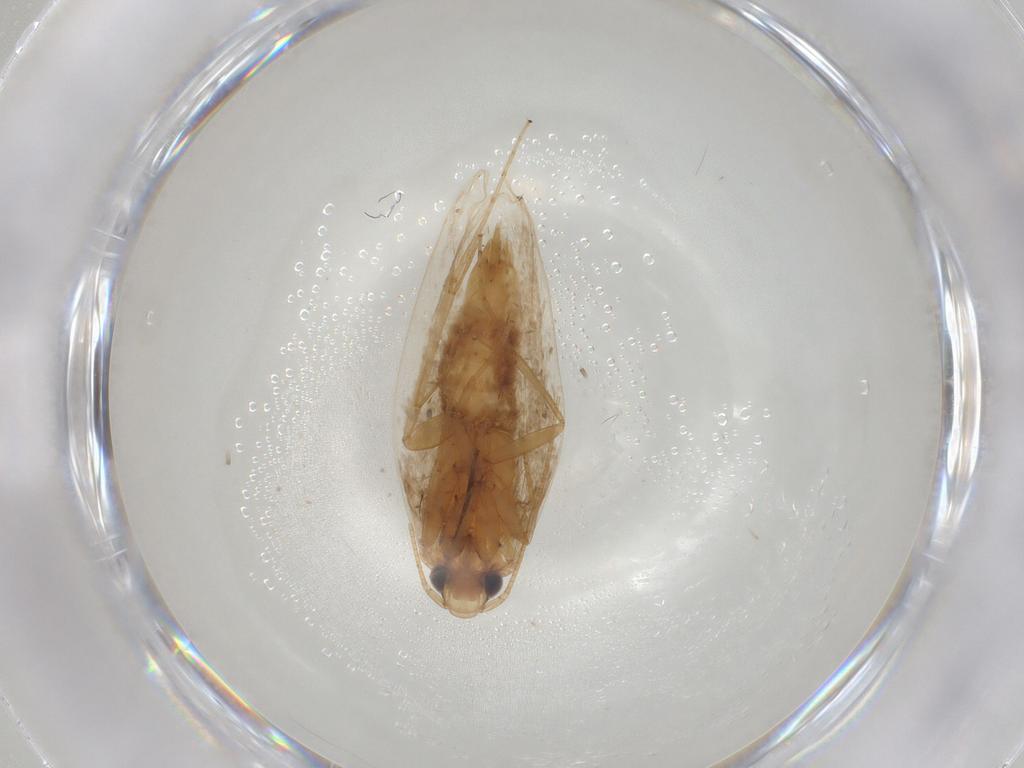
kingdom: Animalia
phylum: Arthropoda
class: Insecta
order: Lepidoptera
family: Tineidae
